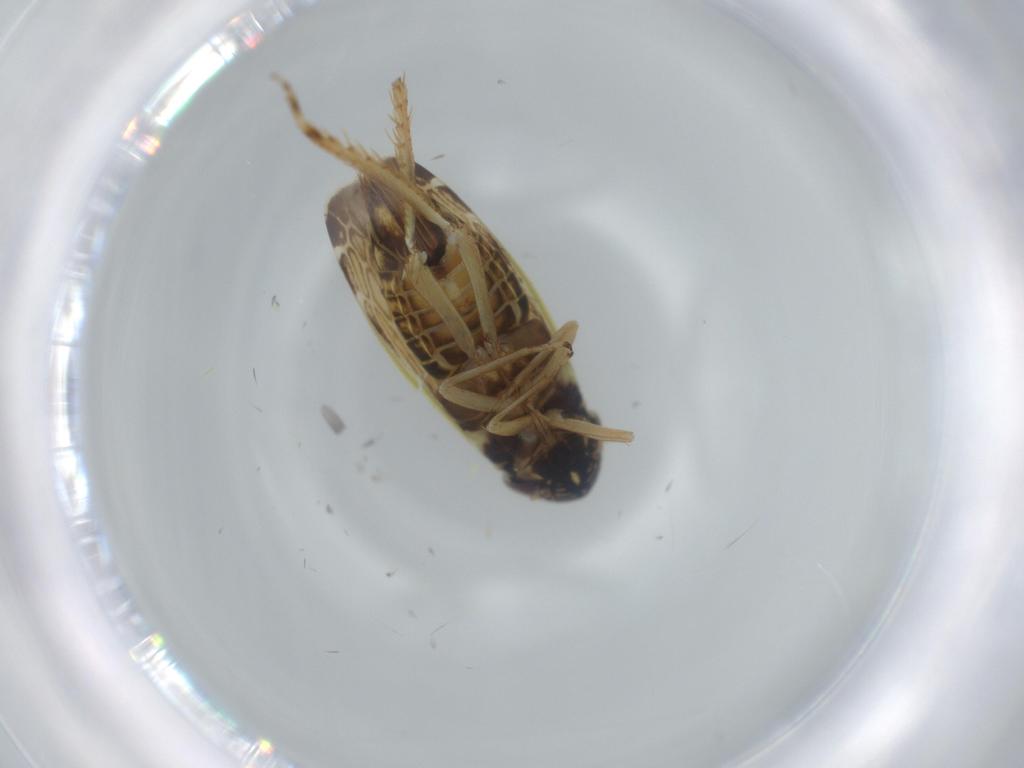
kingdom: Animalia
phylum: Arthropoda
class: Insecta
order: Hemiptera
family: Cicadellidae
